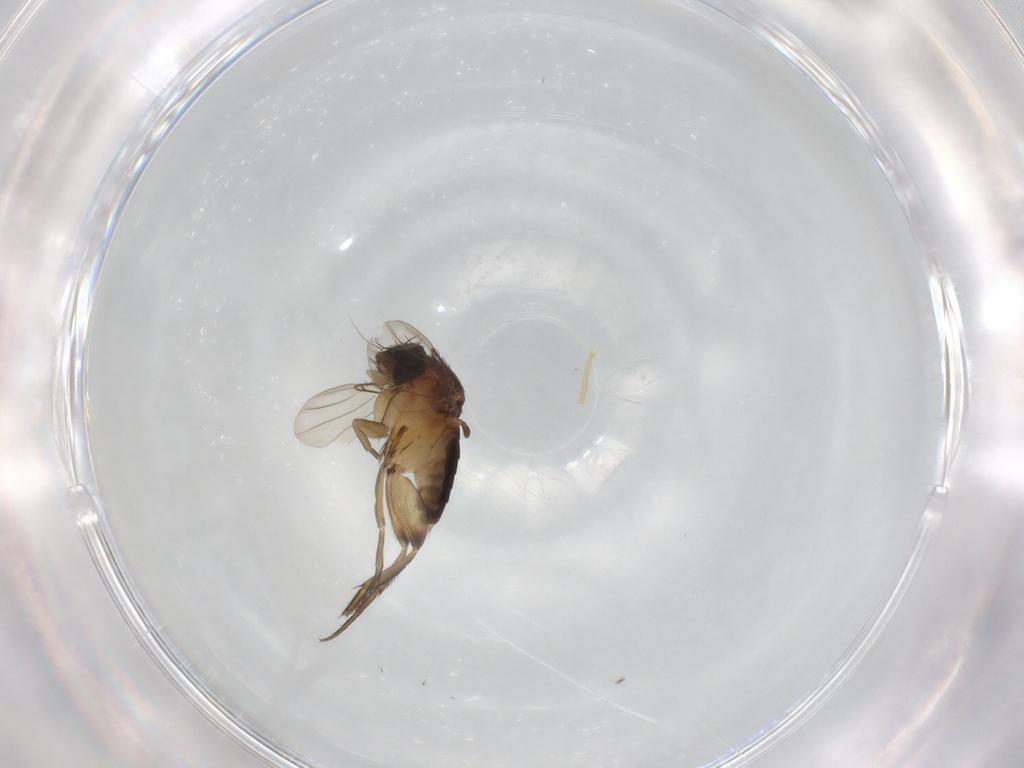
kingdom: Animalia
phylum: Arthropoda
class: Insecta
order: Diptera
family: Phoridae
